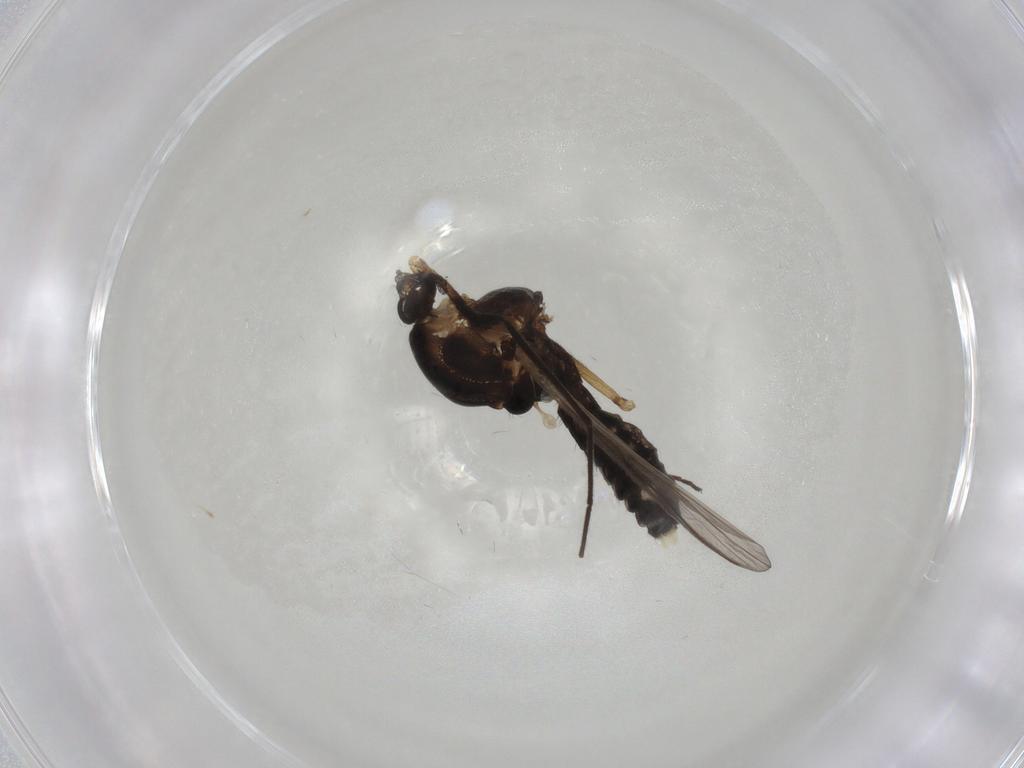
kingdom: Animalia
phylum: Arthropoda
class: Insecta
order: Diptera
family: Chironomidae
